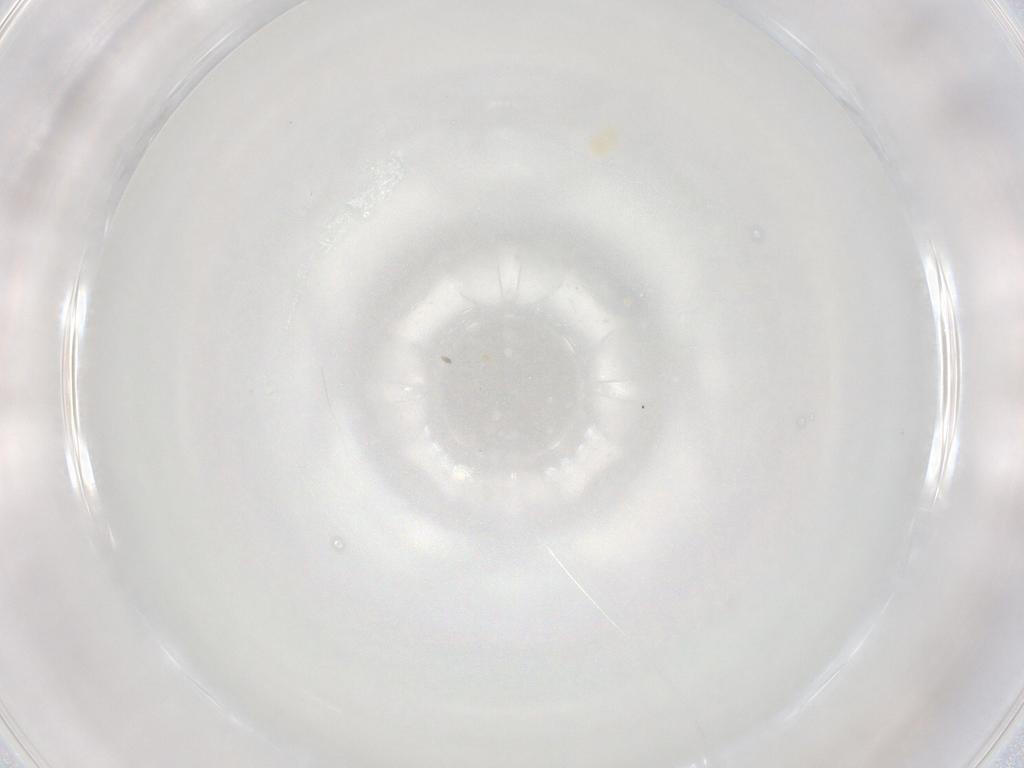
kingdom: Animalia
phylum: Arthropoda
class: Arachnida
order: Trombidiformes
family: Eupodidae
